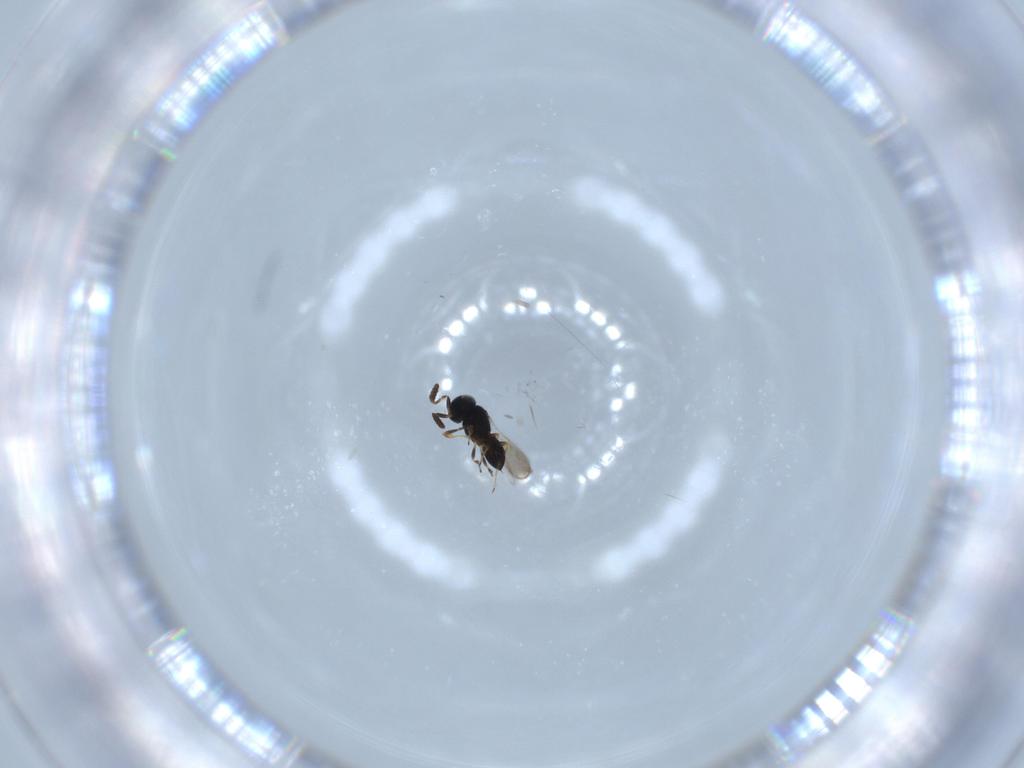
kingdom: Animalia
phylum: Arthropoda
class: Insecta
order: Hymenoptera
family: Scelionidae
